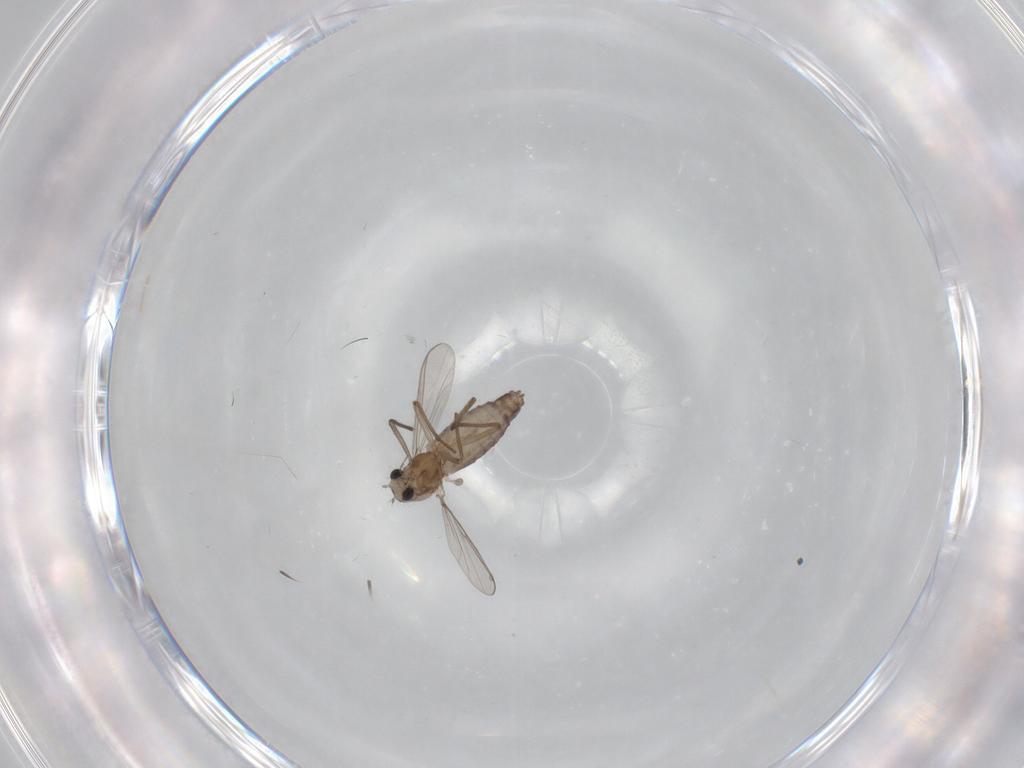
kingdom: Animalia
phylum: Arthropoda
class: Insecta
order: Diptera
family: Chironomidae
